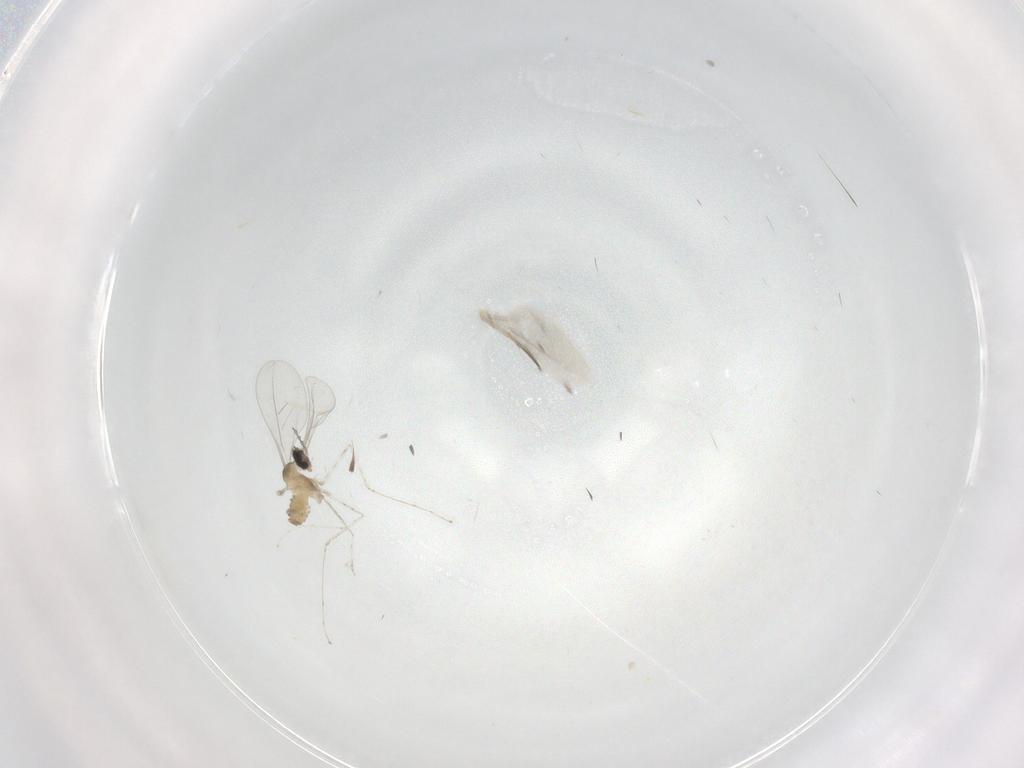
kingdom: Animalia
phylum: Arthropoda
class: Insecta
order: Diptera
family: Cecidomyiidae
